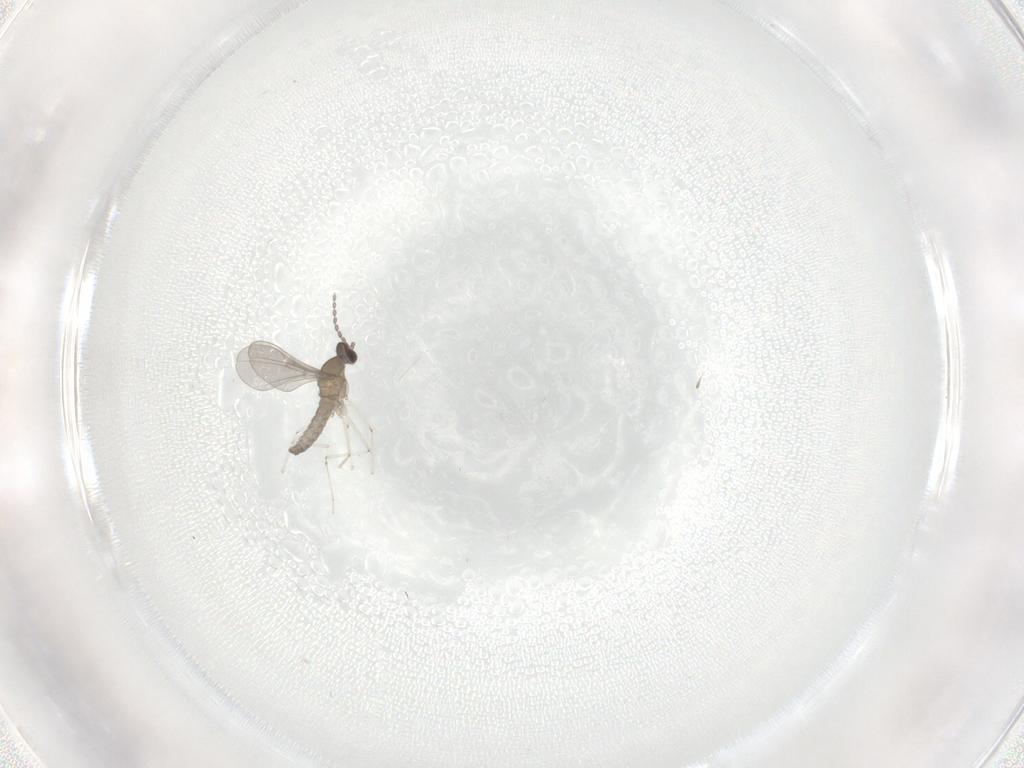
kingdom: Animalia
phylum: Arthropoda
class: Insecta
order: Diptera
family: Cecidomyiidae
